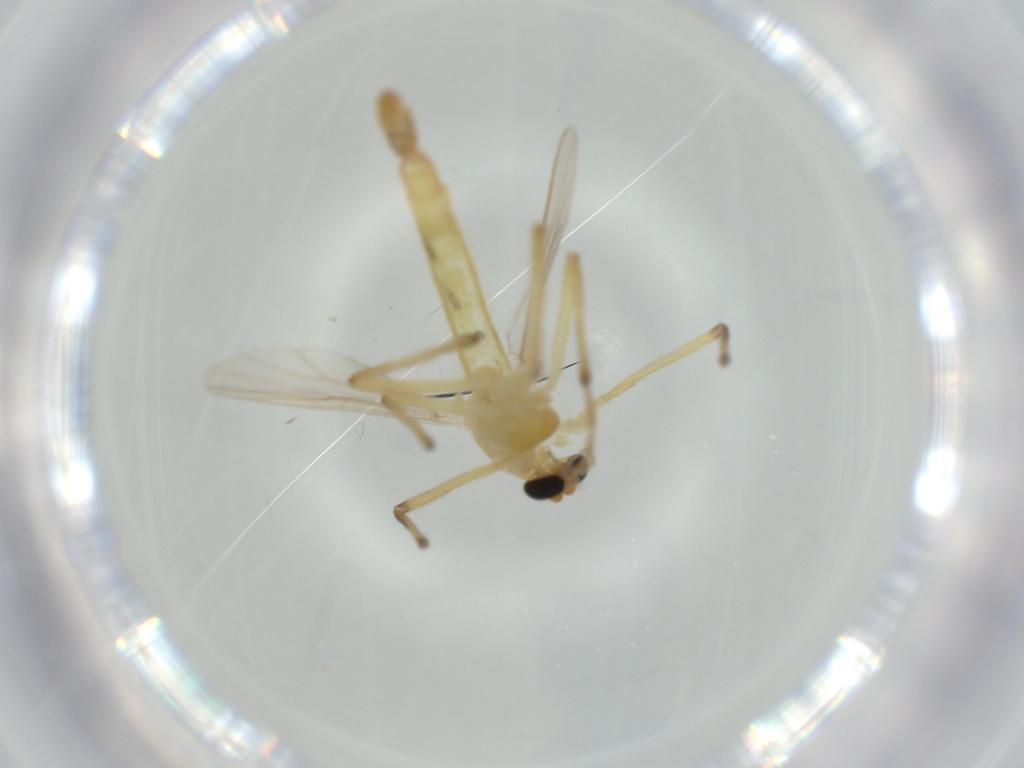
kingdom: Animalia
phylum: Arthropoda
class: Insecta
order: Diptera
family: Chironomidae
